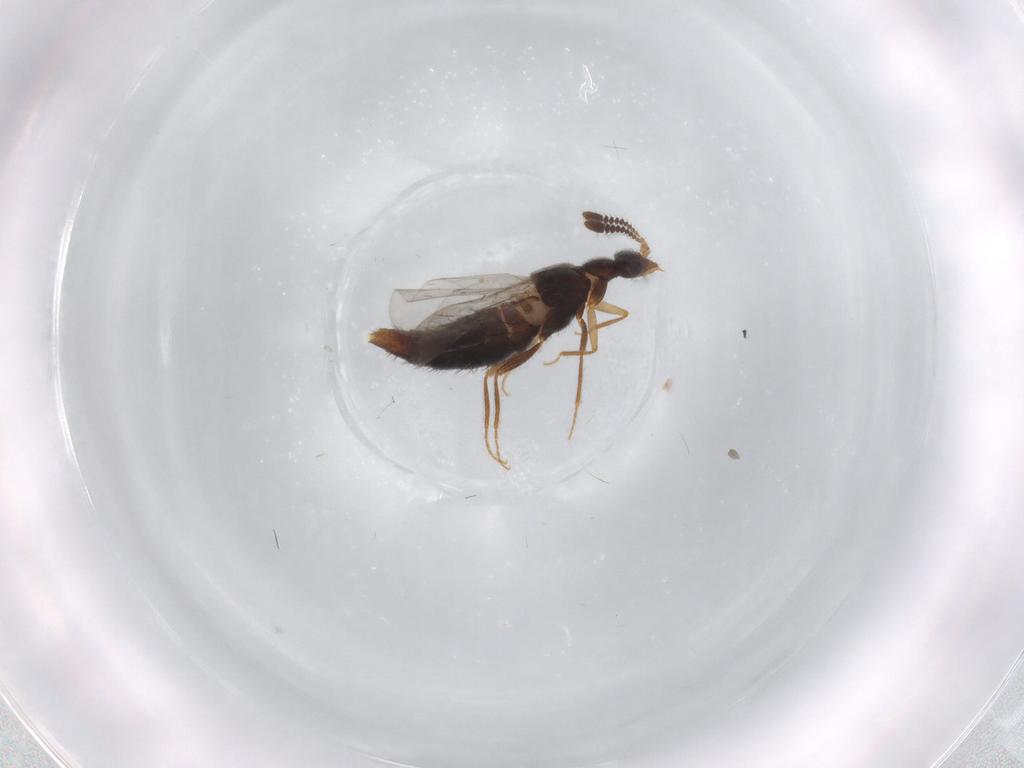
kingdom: Animalia
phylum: Arthropoda
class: Insecta
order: Coleoptera
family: Staphylinidae
